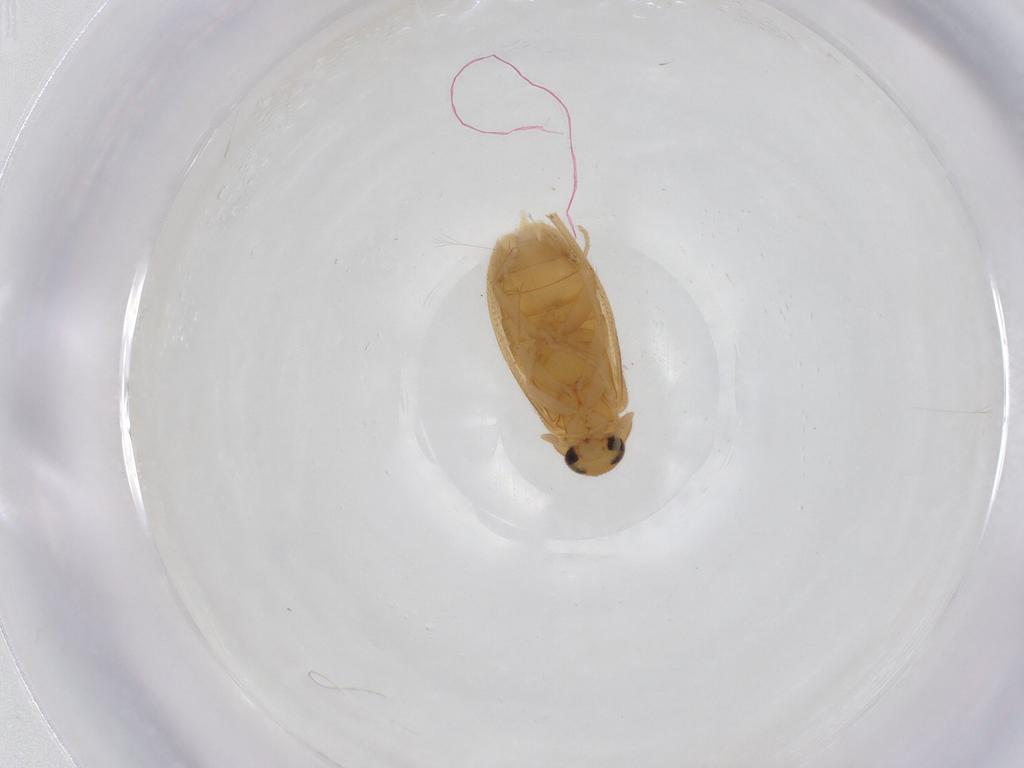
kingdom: Animalia
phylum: Arthropoda
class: Insecta
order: Coleoptera
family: Scraptiidae
